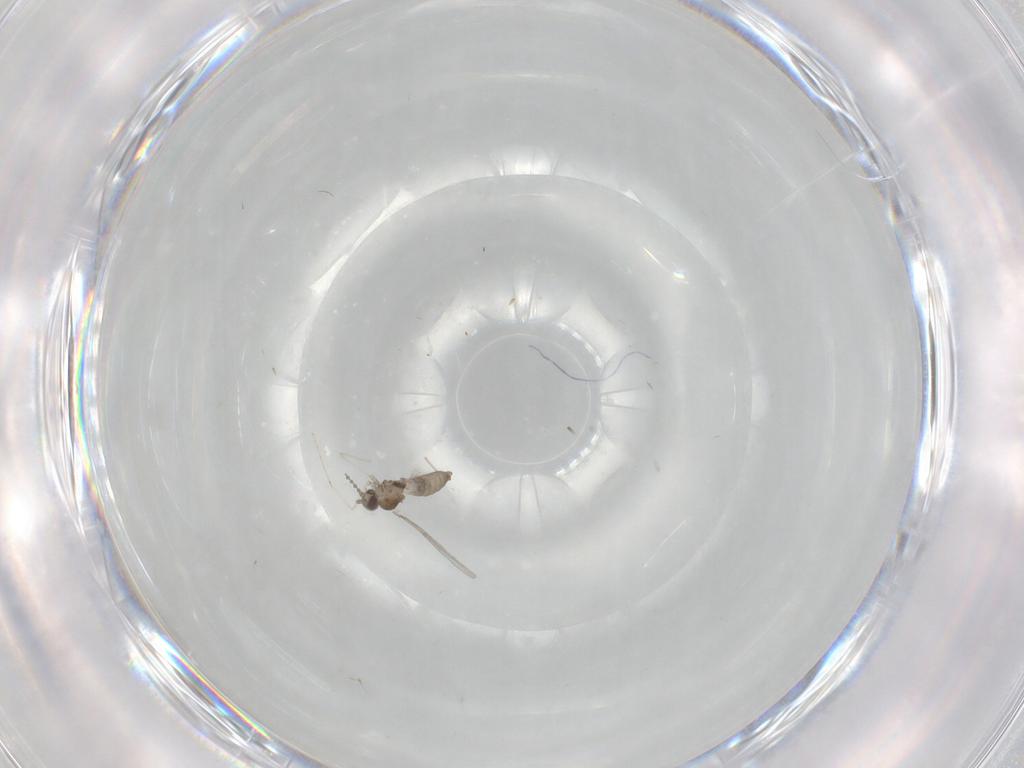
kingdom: Animalia
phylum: Arthropoda
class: Insecta
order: Diptera
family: Cecidomyiidae
